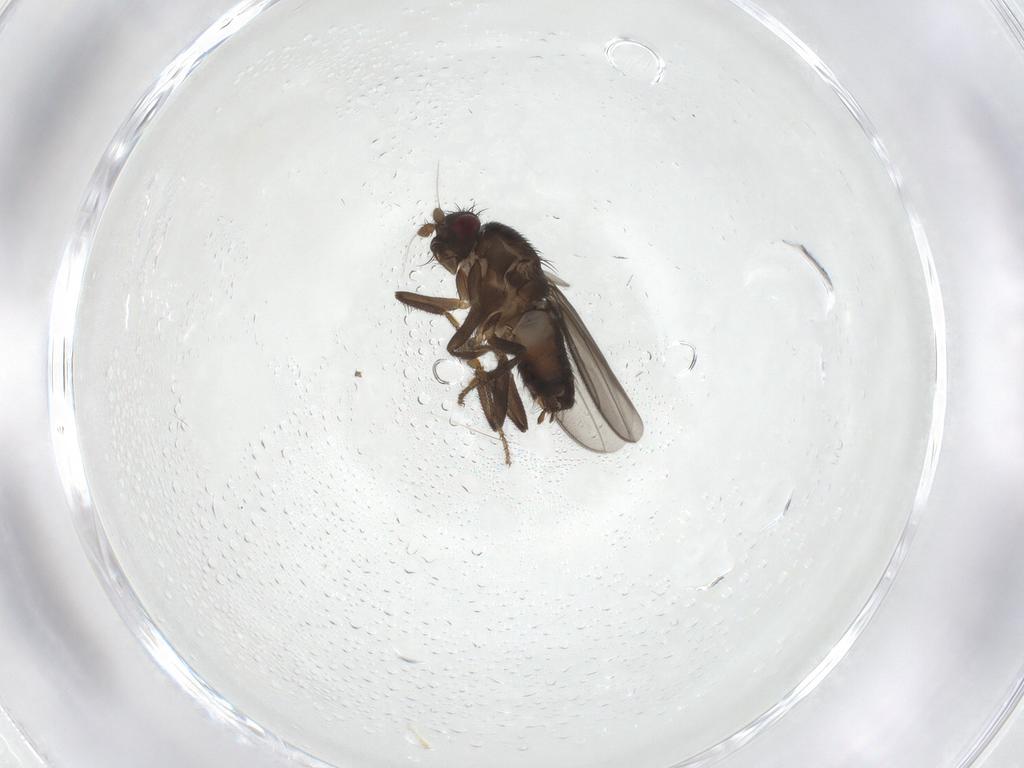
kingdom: Animalia
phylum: Arthropoda
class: Insecta
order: Diptera
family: Sphaeroceridae
